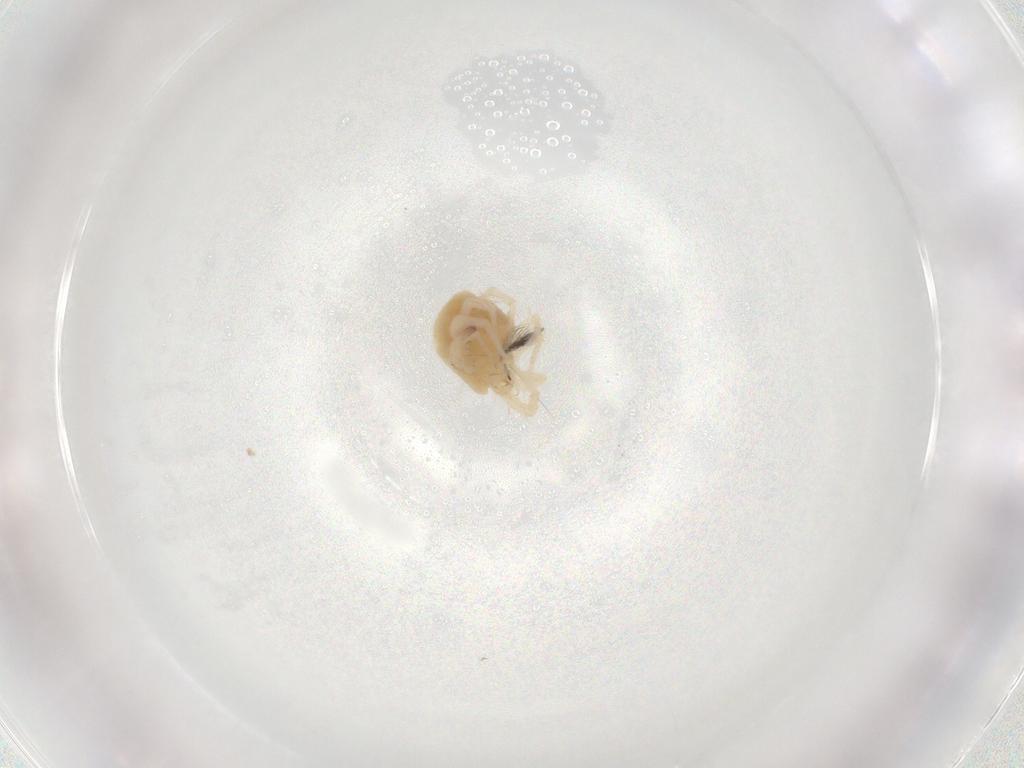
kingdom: Animalia
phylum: Arthropoda
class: Arachnida
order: Trombidiformes
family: Anystidae
